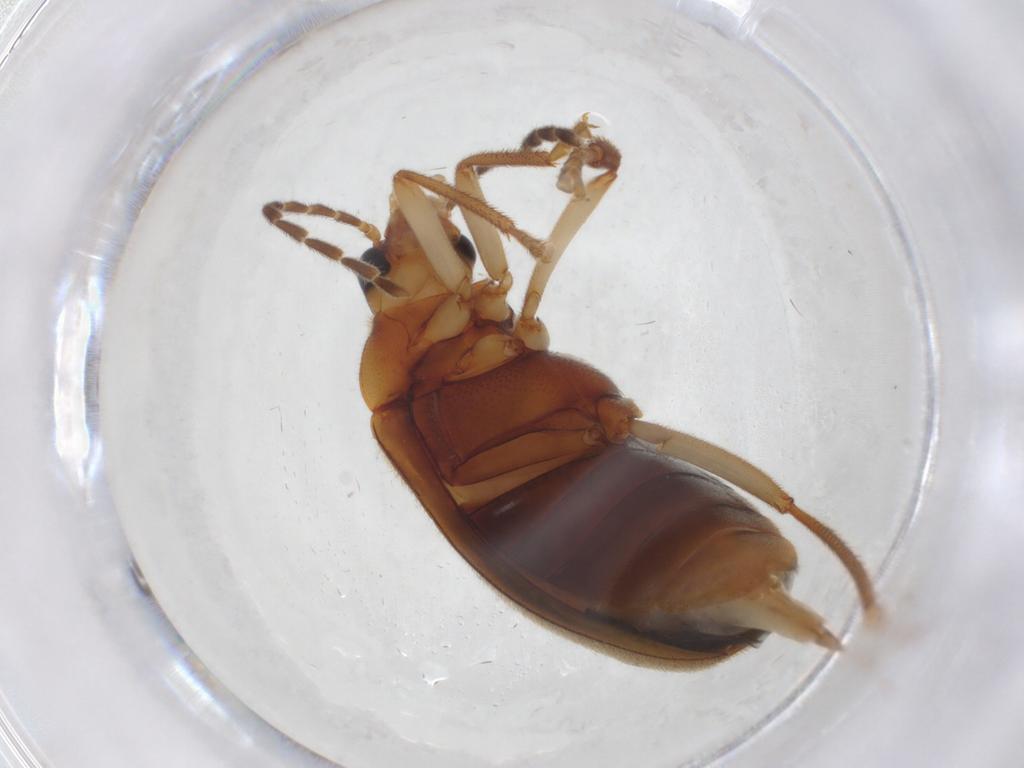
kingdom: Animalia
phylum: Arthropoda
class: Insecta
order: Coleoptera
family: Ptilodactylidae
